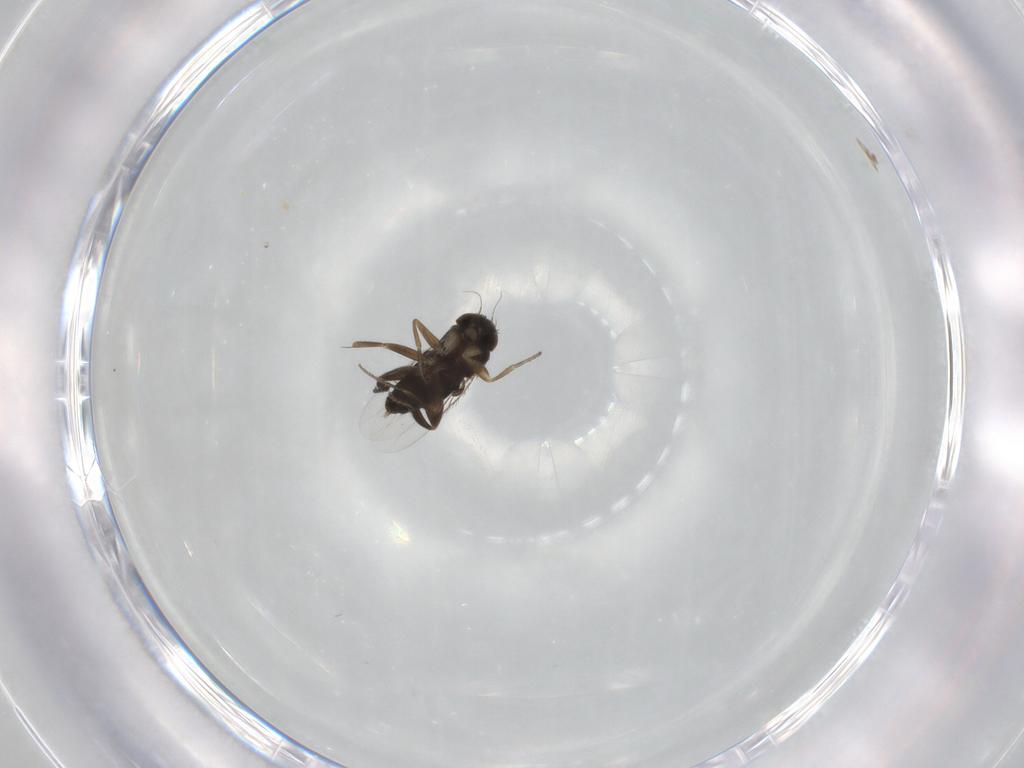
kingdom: Animalia
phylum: Arthropoda
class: Insecta
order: Diptera
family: Phoridae
